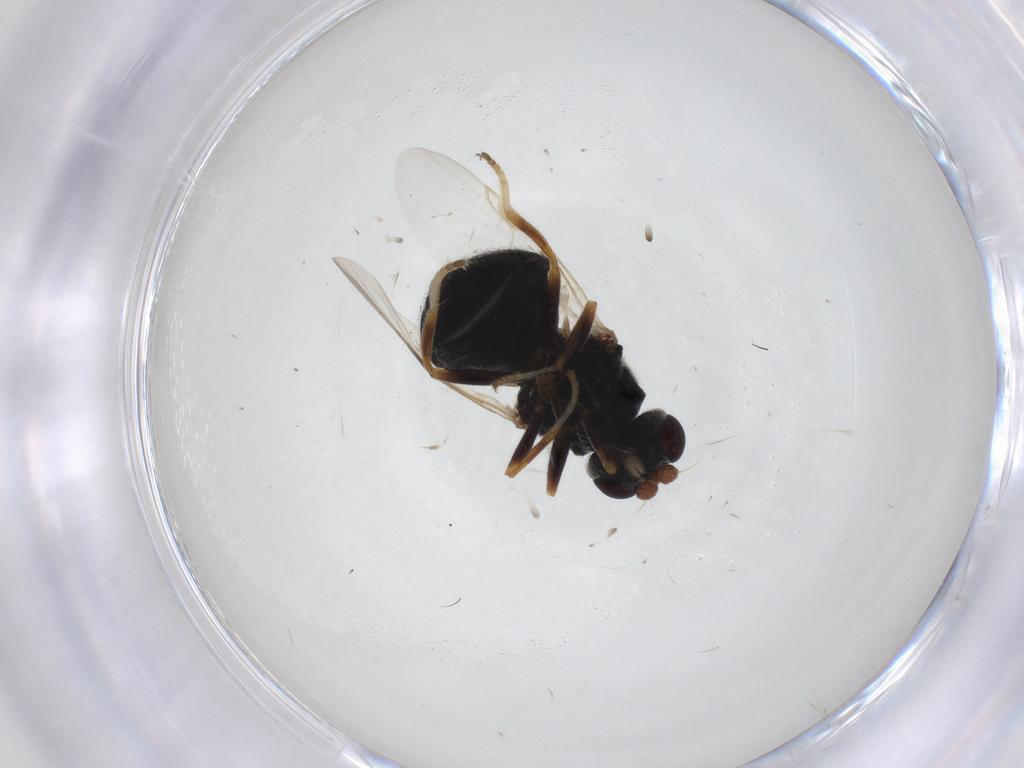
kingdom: Animalia
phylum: Arthropoda
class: Insecta
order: Diptera
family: Stratiomyidae
